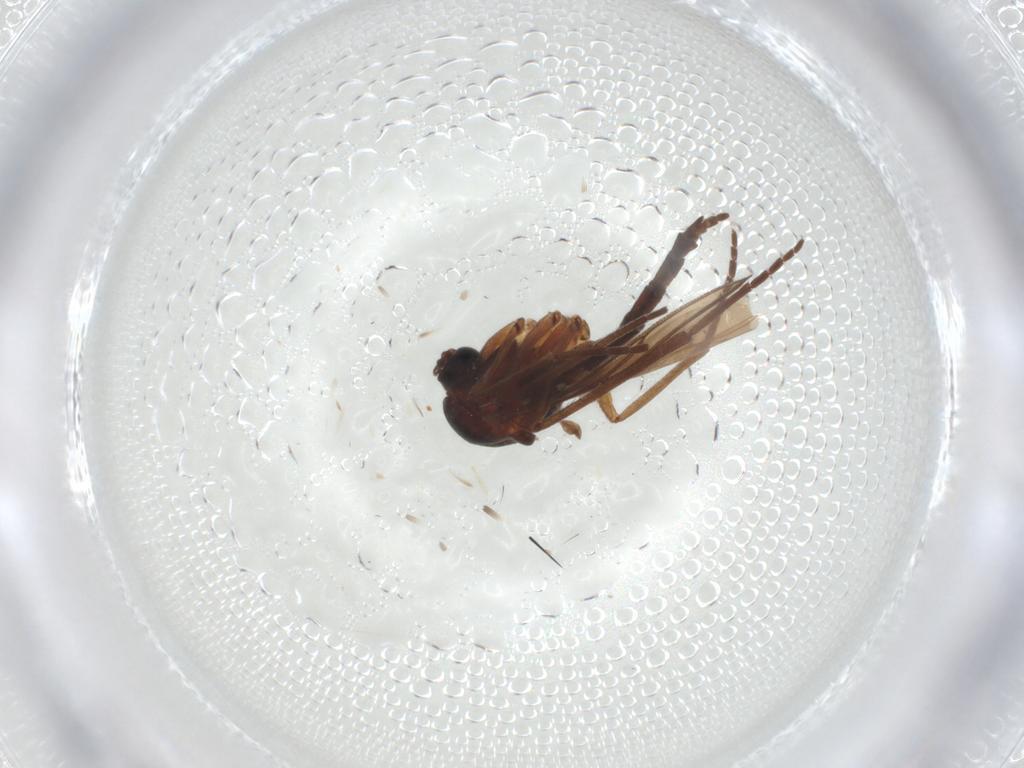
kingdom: Animalia
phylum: Arthropoda
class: Insecta
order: Diptera
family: Sciaridae
